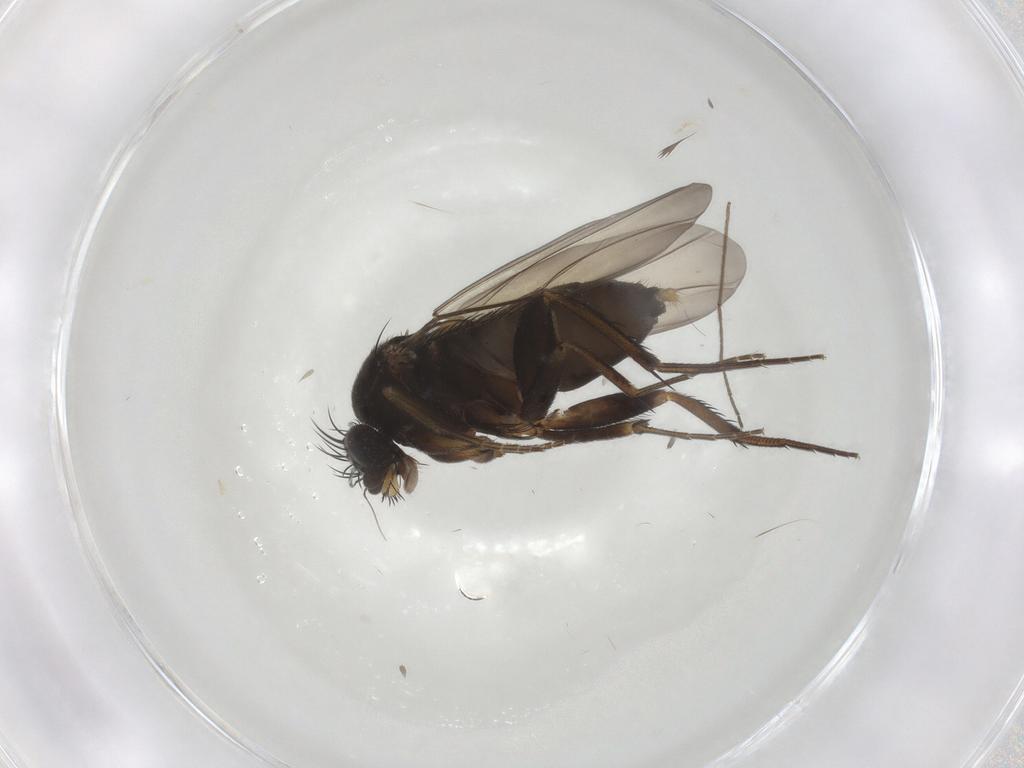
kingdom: Animalia
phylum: Arthropoda
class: Insecta
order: Diptera
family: Phoridae
